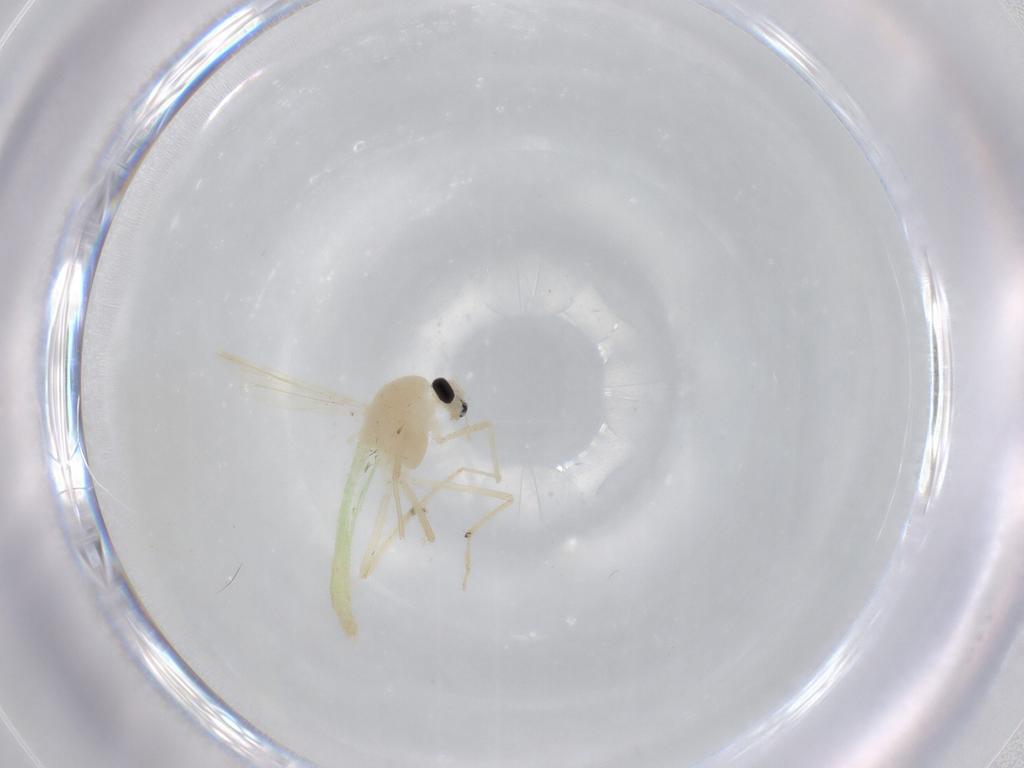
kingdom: Animalia
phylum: Arthropoda
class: Insecta
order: Diptera
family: Chironomidae
